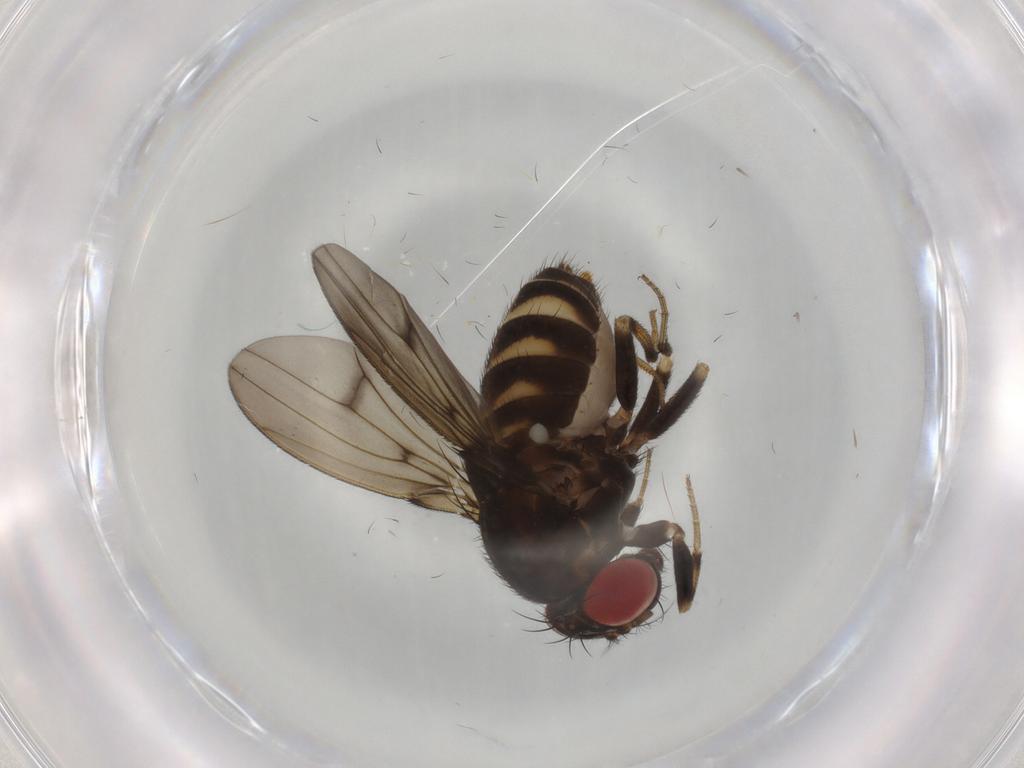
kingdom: Animalia
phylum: Arthropoda
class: Insecta
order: Diptera
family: Drosophilidae
